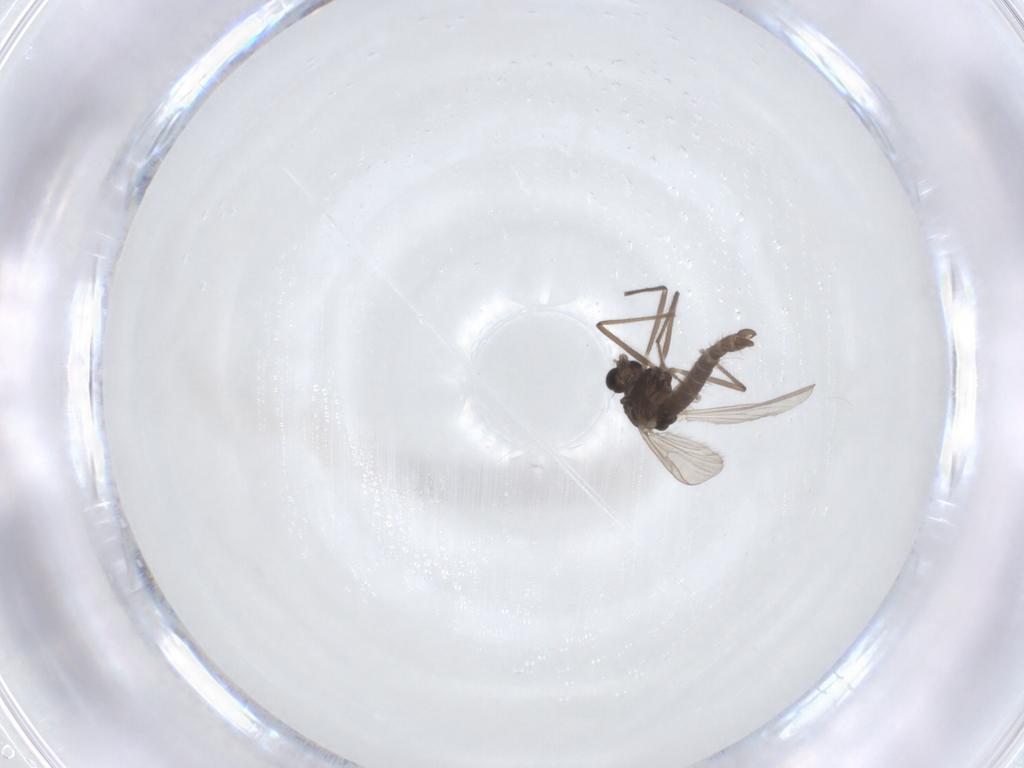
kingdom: Animalia
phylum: Arthropoda
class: Insecta
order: Diptera
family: Chironomidae
